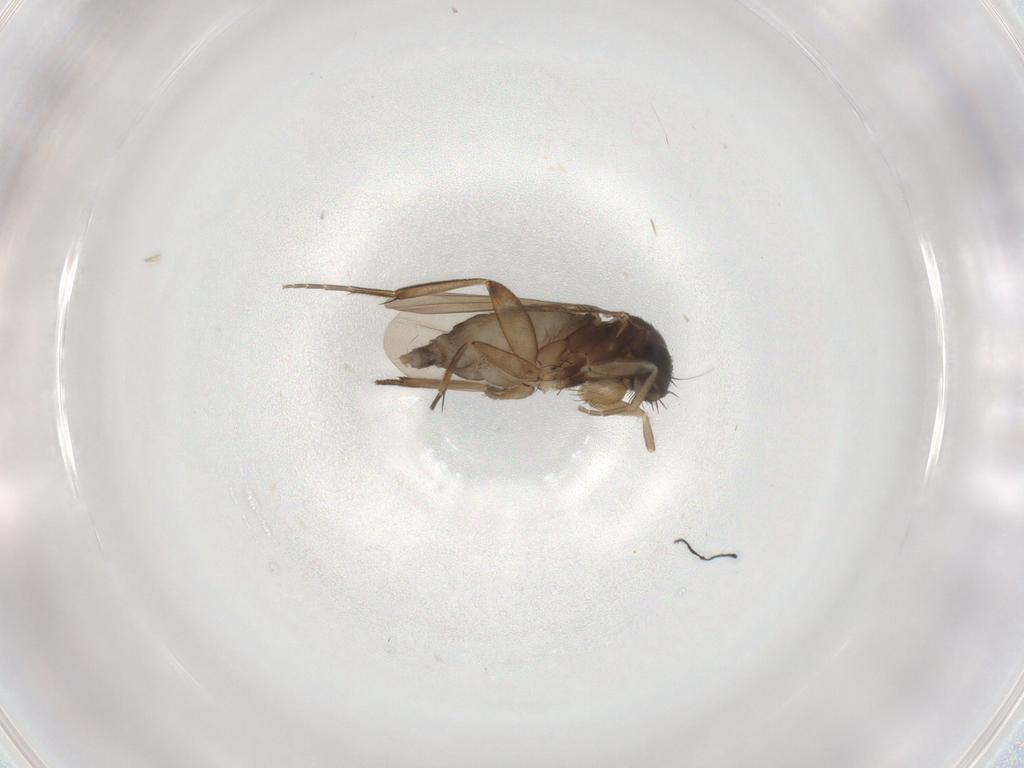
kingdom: Animalia
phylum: Arthropoda
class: Insecta
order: Diptera
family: Phoridae
